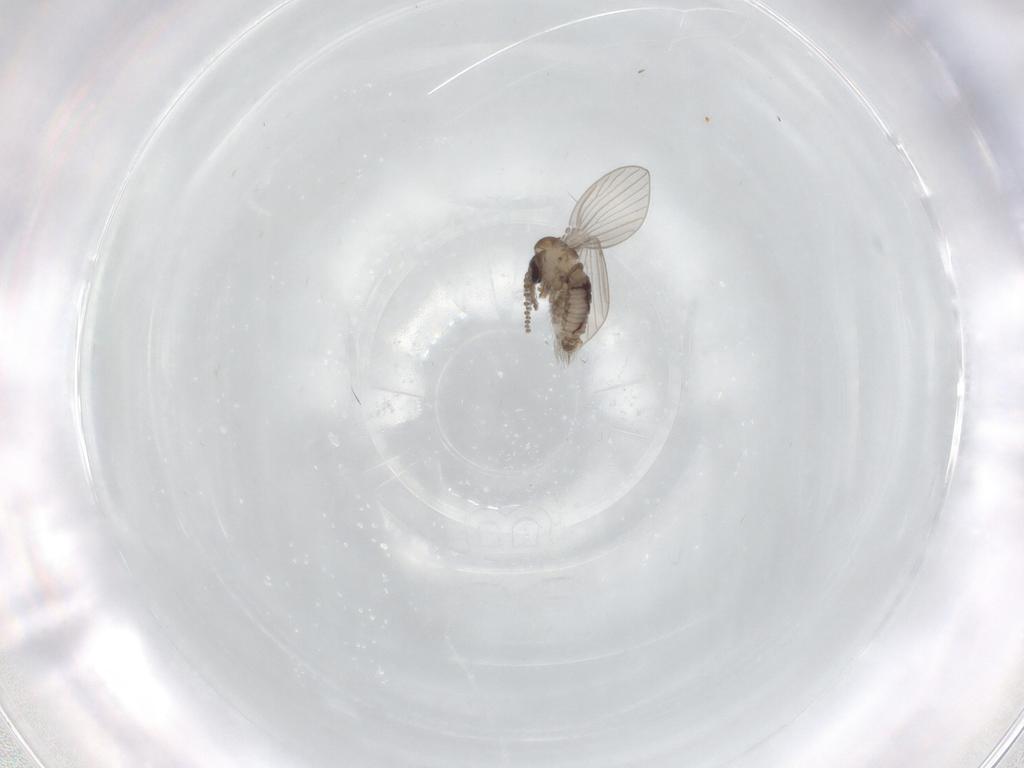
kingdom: Animalia
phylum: Arthropoda
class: Insecta
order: Diptera
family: Psychodidae
